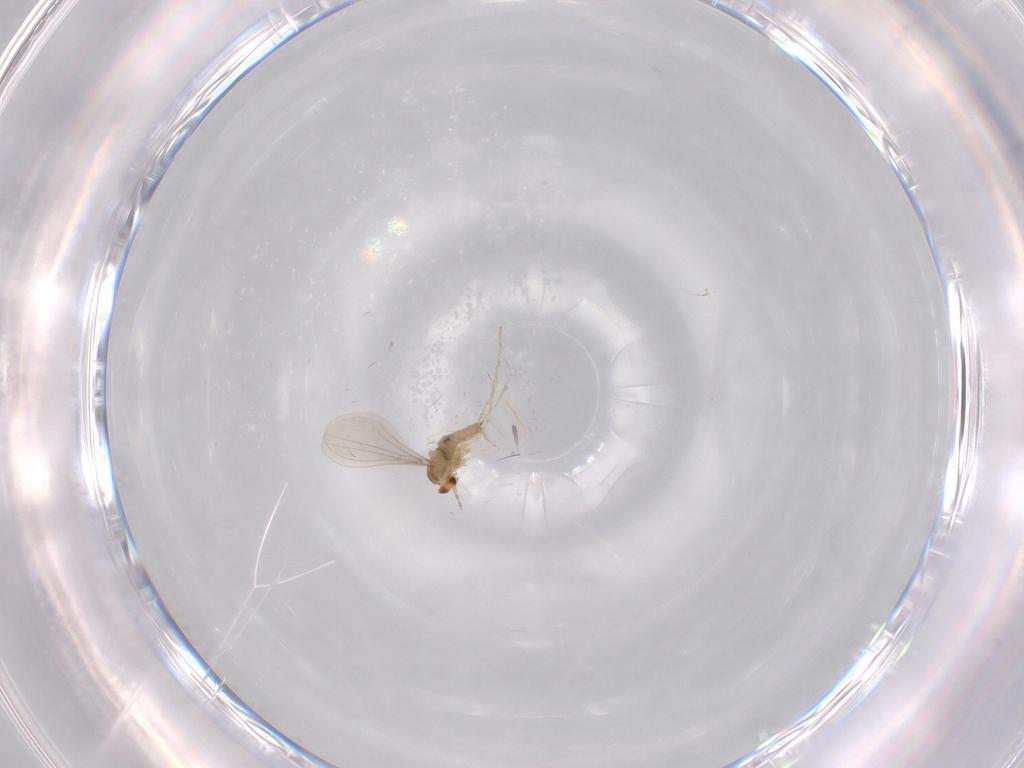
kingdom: Animalia
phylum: Arthropoda
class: Insecta
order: Diptera
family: Cecidomyiidae
